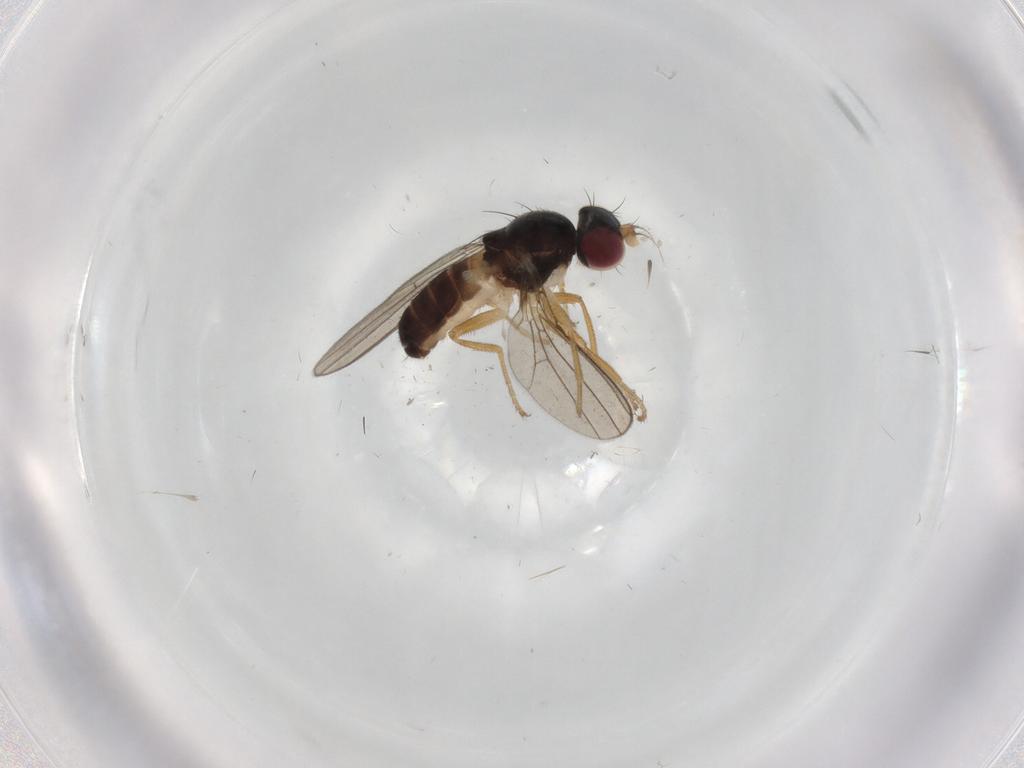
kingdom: Animalia
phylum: Arthropoda
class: Insecta
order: Diptera
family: Anthomyzidae
